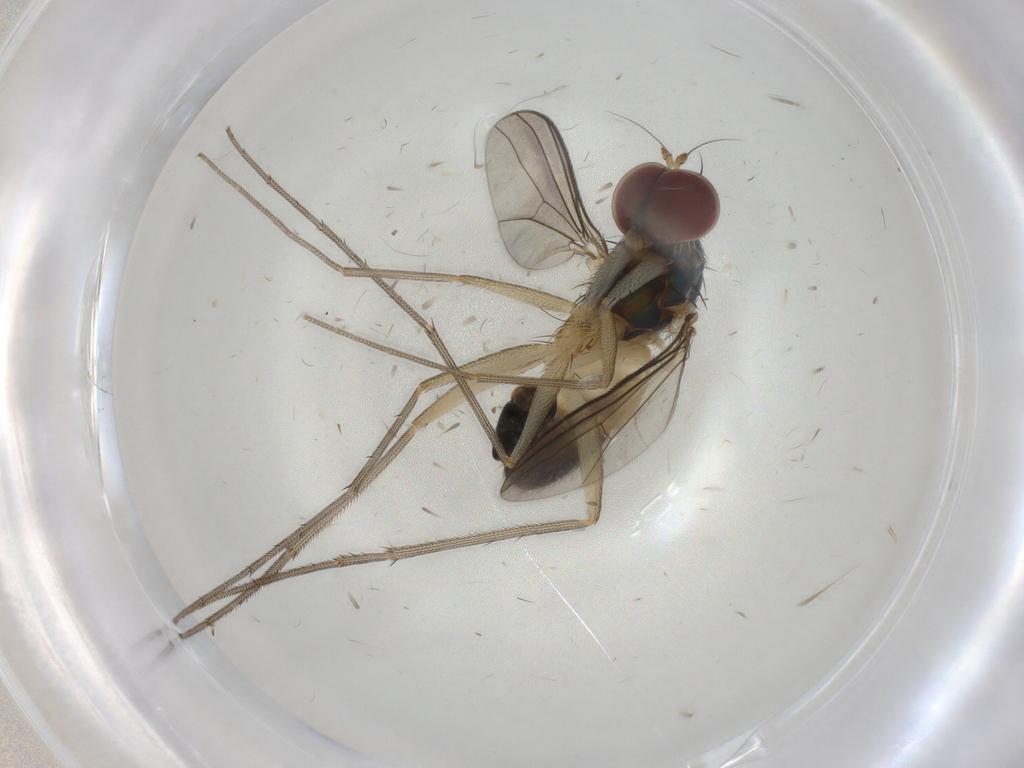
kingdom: Animalia
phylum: Arthropoda
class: Insecta
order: Diptera
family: Dolichopodidae
